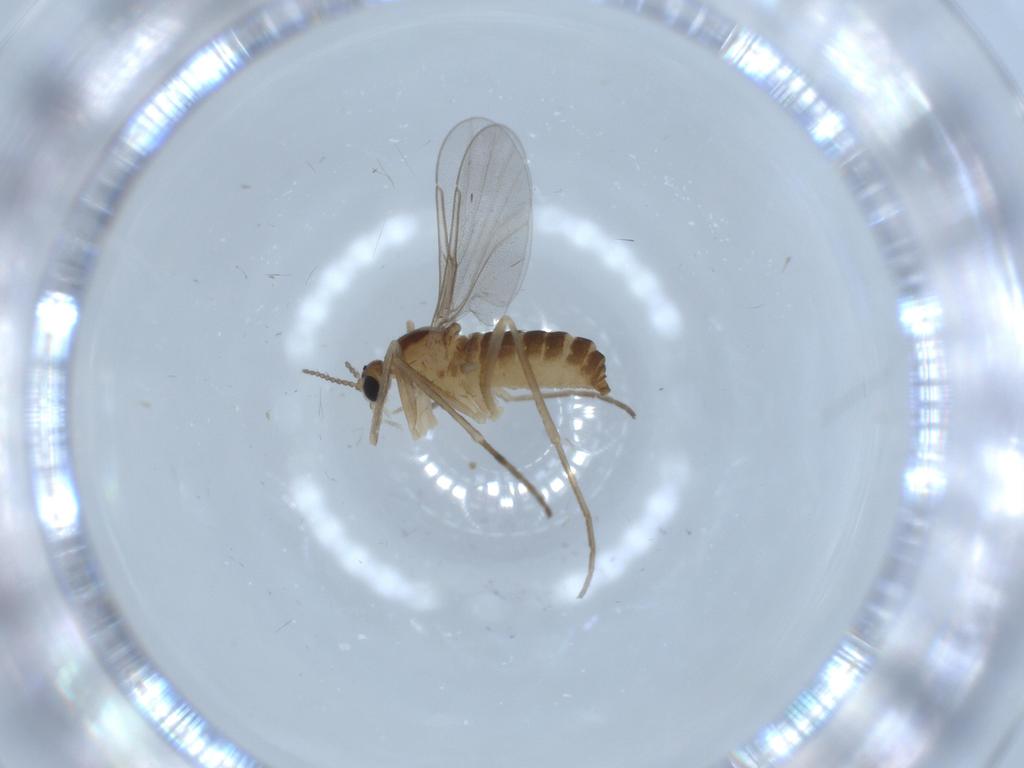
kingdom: Animalia
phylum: Arthropoda
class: Insecta
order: Diptera
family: Cecidomyiidae
